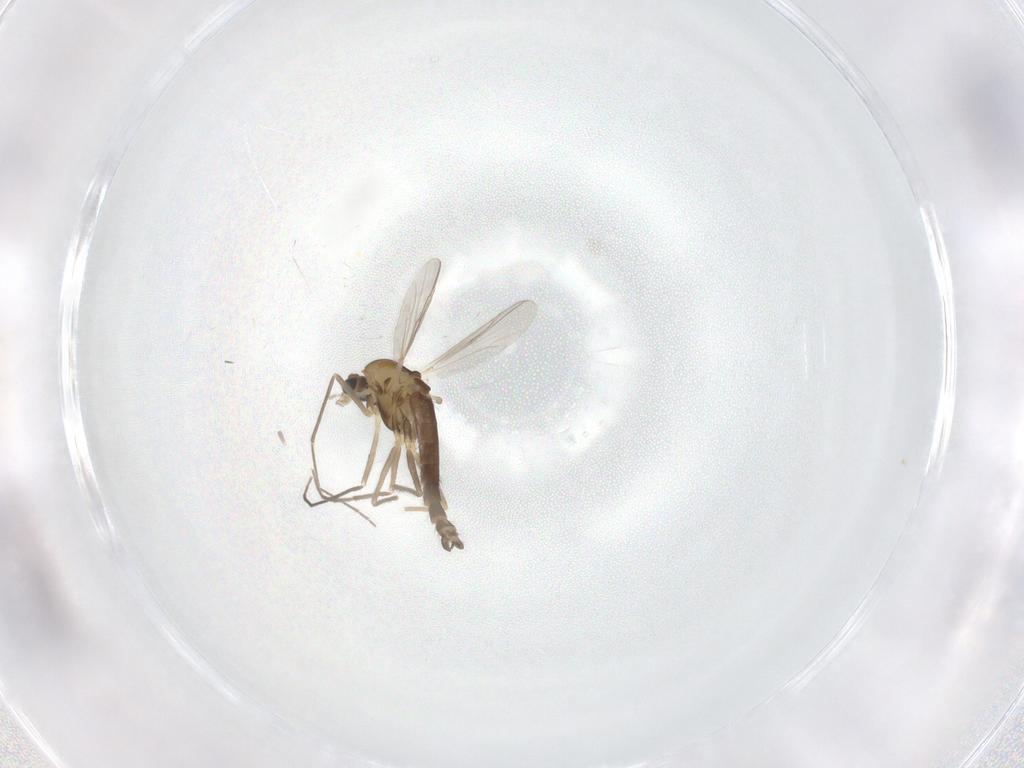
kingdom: Animalia
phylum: Arthropoda
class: Insecta
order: Diptera
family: Chironomidae
